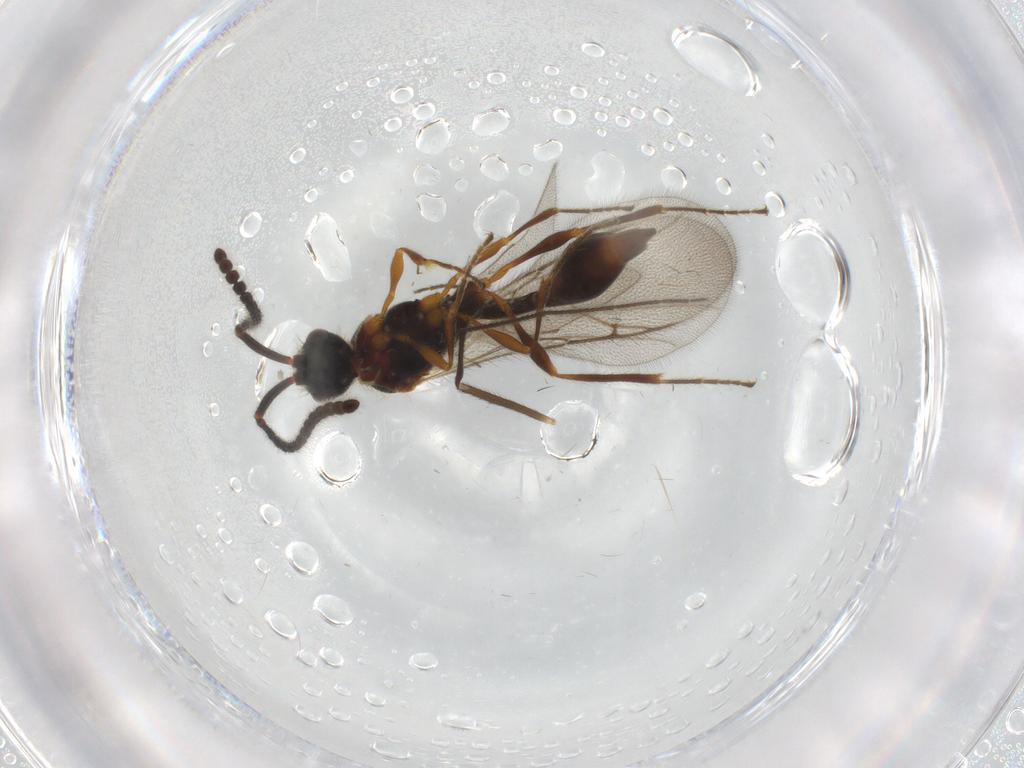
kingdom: Animalia
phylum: Arthropoda
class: Insecta
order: Hymenoptera
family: Diapriidae
